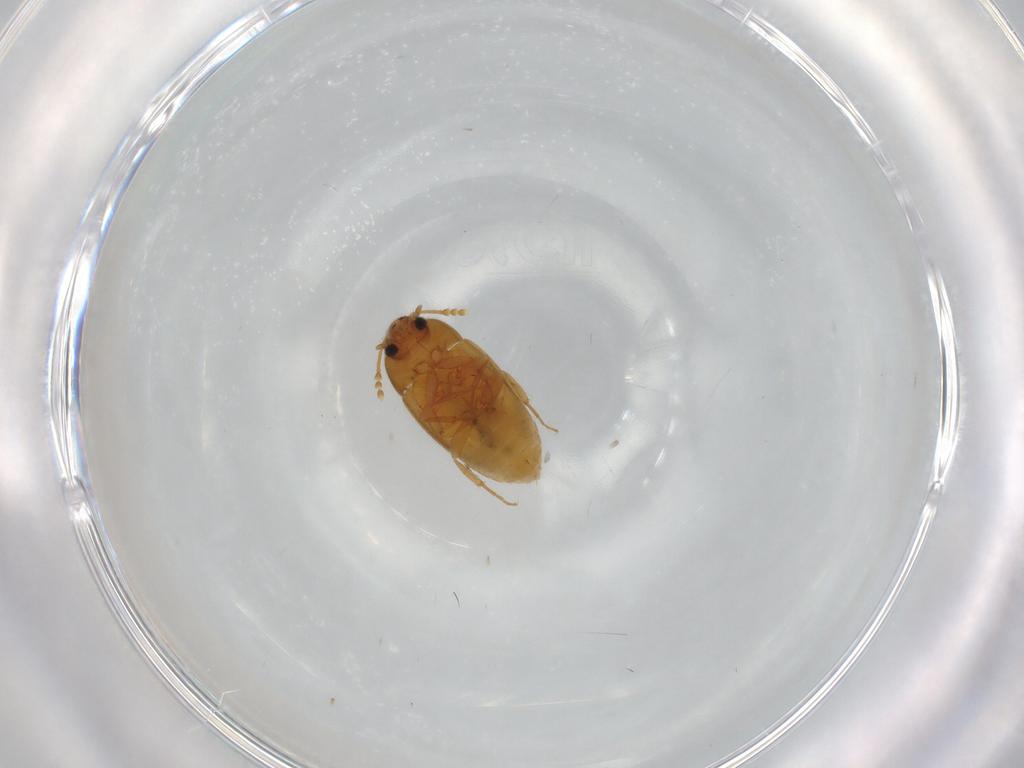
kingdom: Animalia
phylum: Arthropoda
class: Insecta
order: Coleoptera
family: Mycetophagidae
